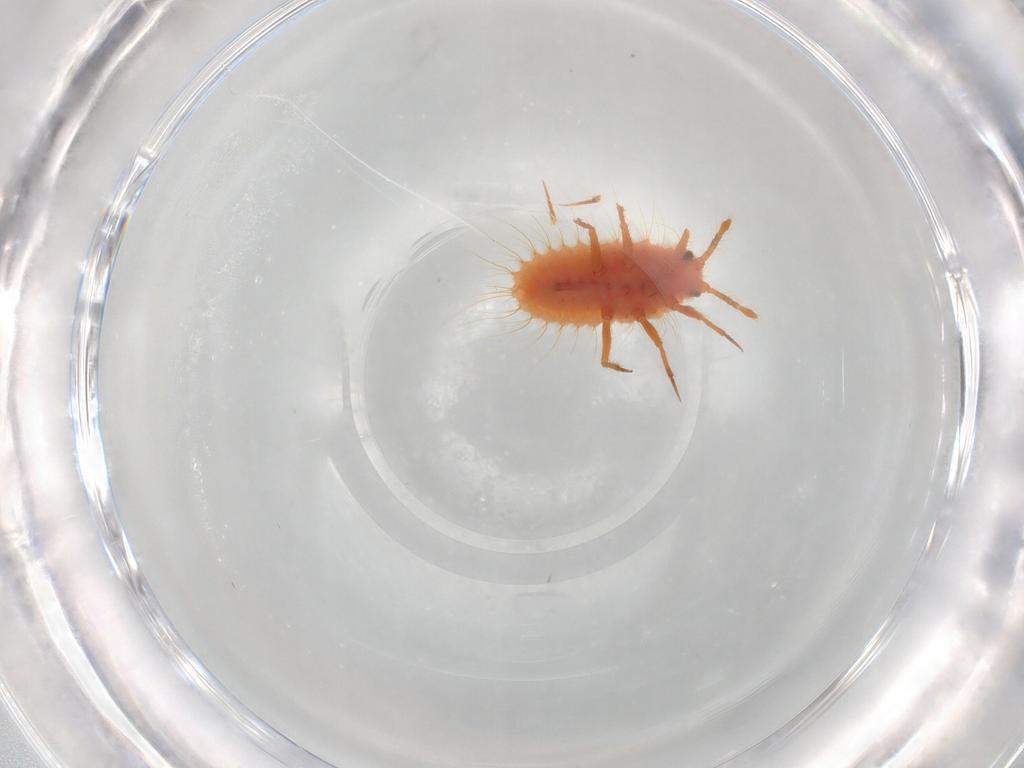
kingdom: Animalia
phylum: Arthropoda
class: Insecta
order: Hemiptera
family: Coccoidea_incertae_sedis
